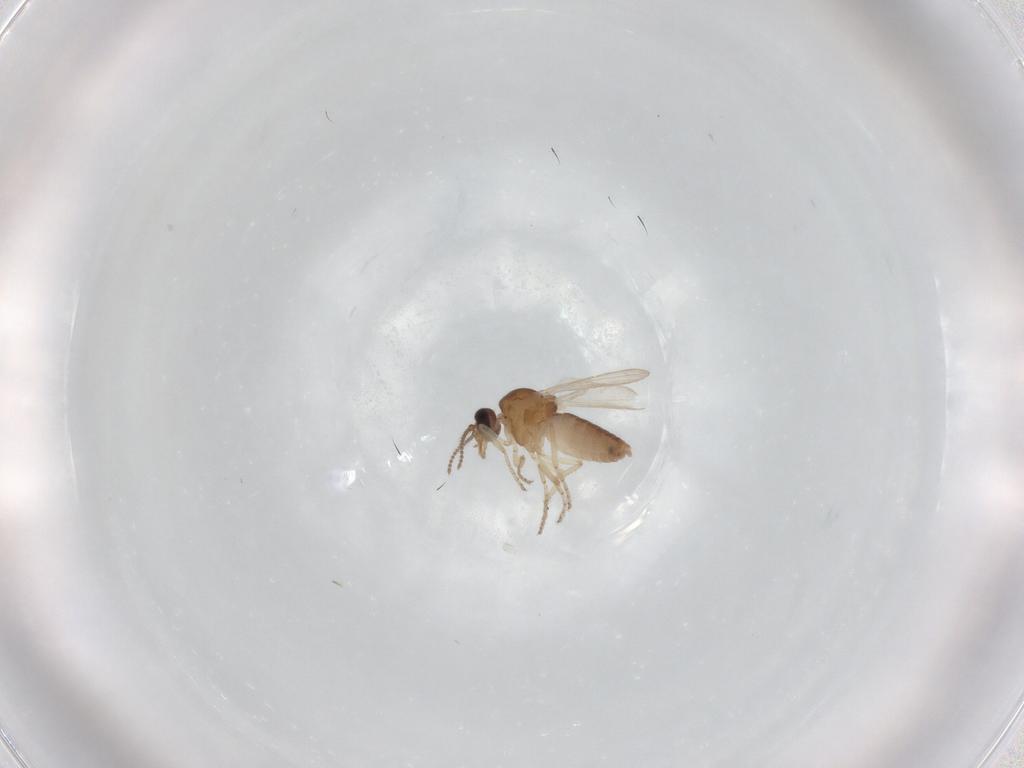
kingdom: Animalia
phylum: Arthropoda
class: Insecta
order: Diptera
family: Ceratopogonidae
